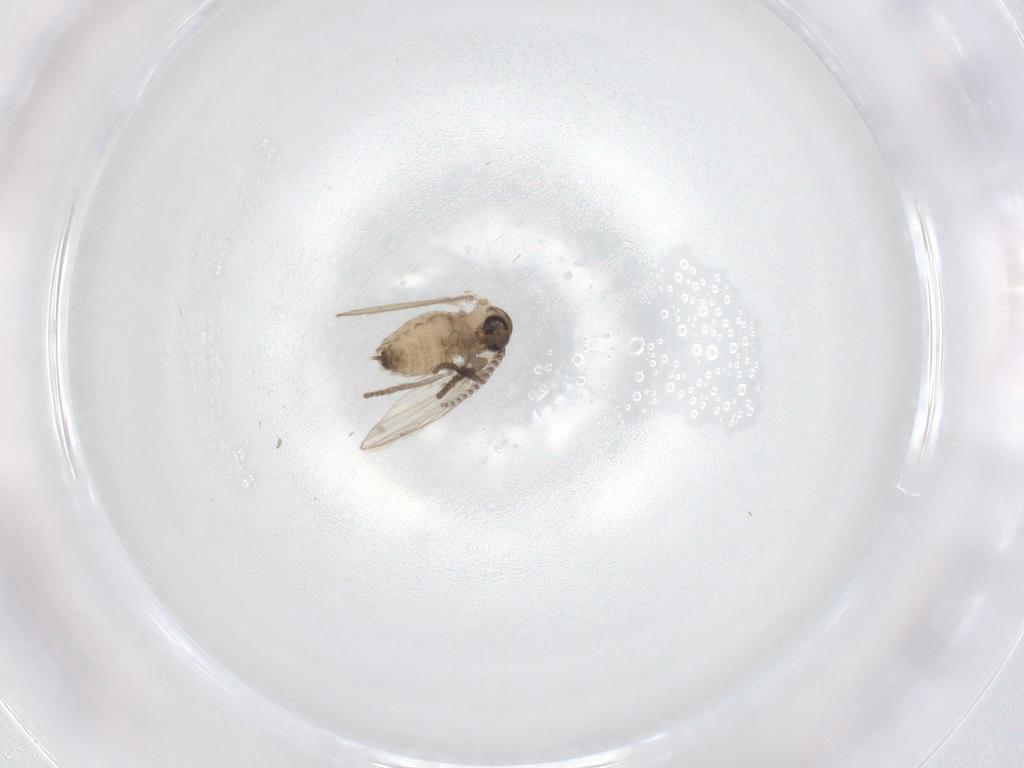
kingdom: Animalia
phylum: Arthropoda
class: Insecta
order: Diptera
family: Psychodidae
